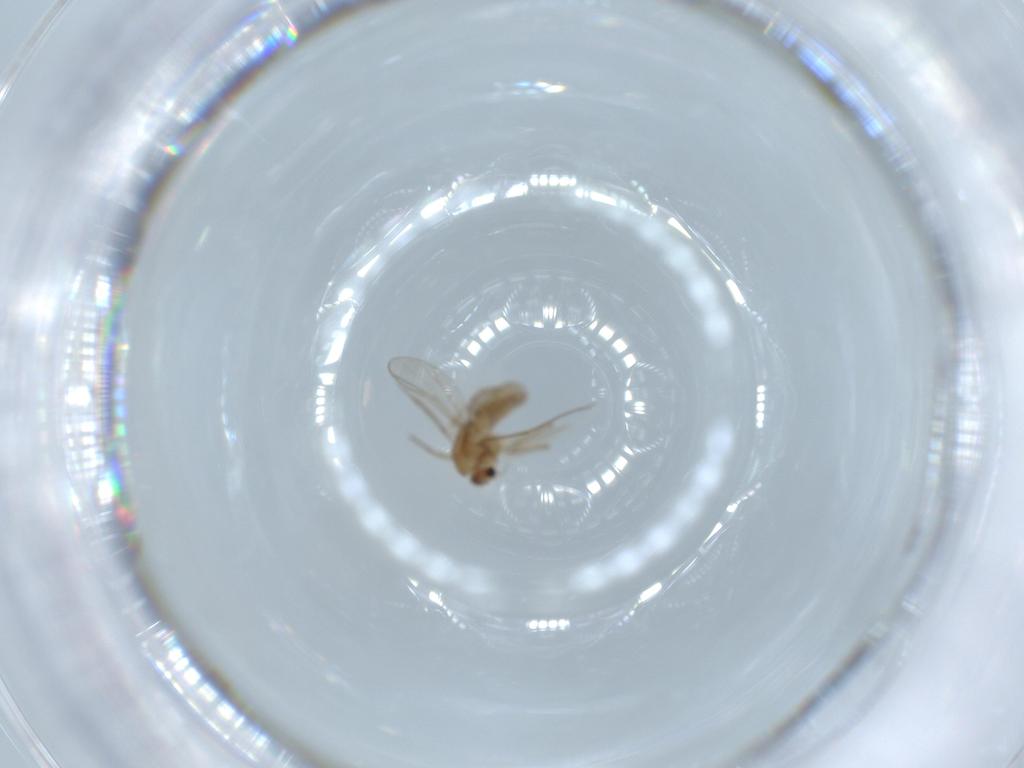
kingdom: Animalia
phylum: Arthropoda
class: Insecta
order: Diptera
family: Chironomidae
